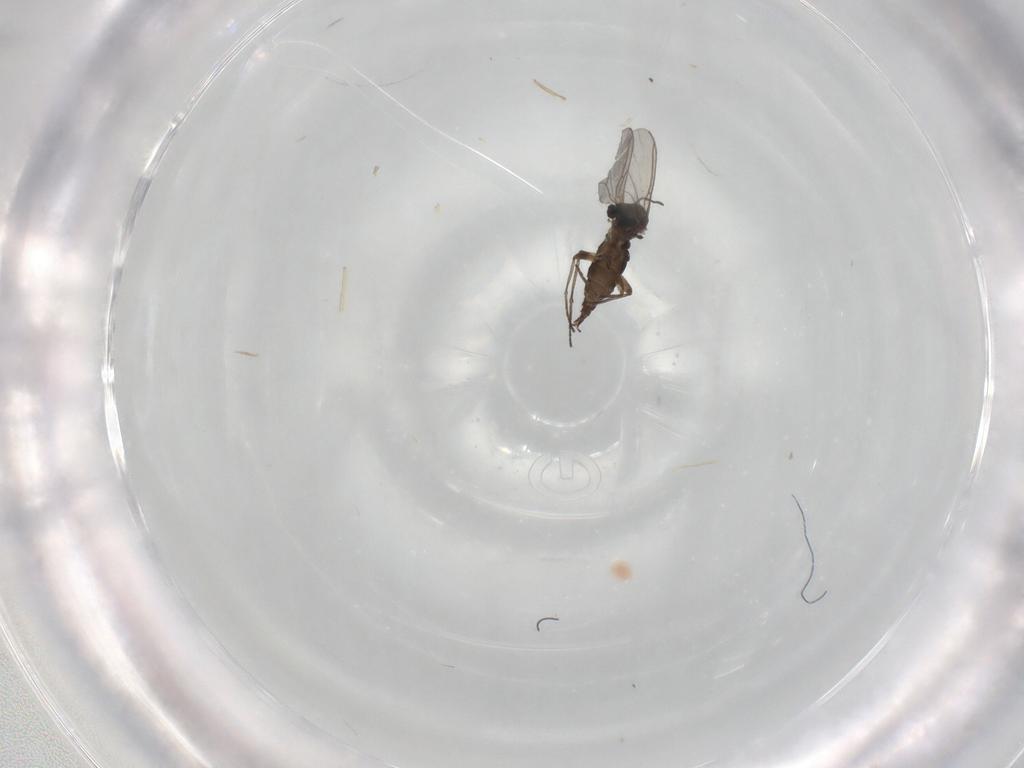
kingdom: Animalia
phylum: Arthropoda
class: Insecta
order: Diptera
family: Sciaridae
